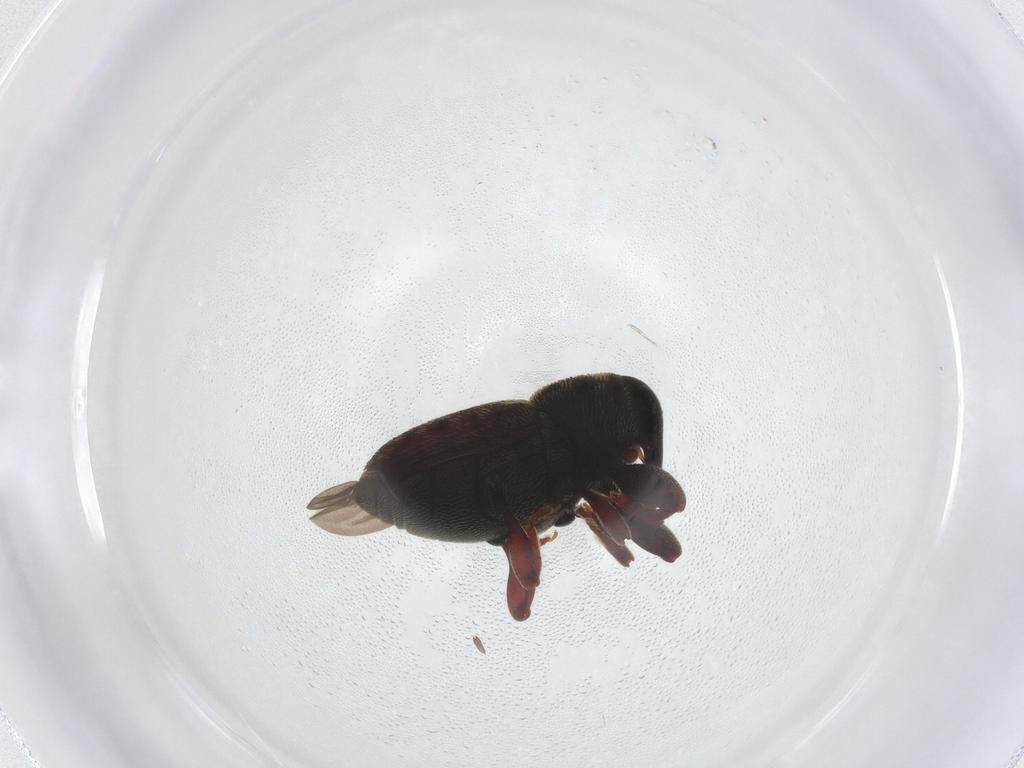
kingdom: Animalia
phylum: Arthropoda
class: Insecta
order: Coleoptera
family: Curculionidae
